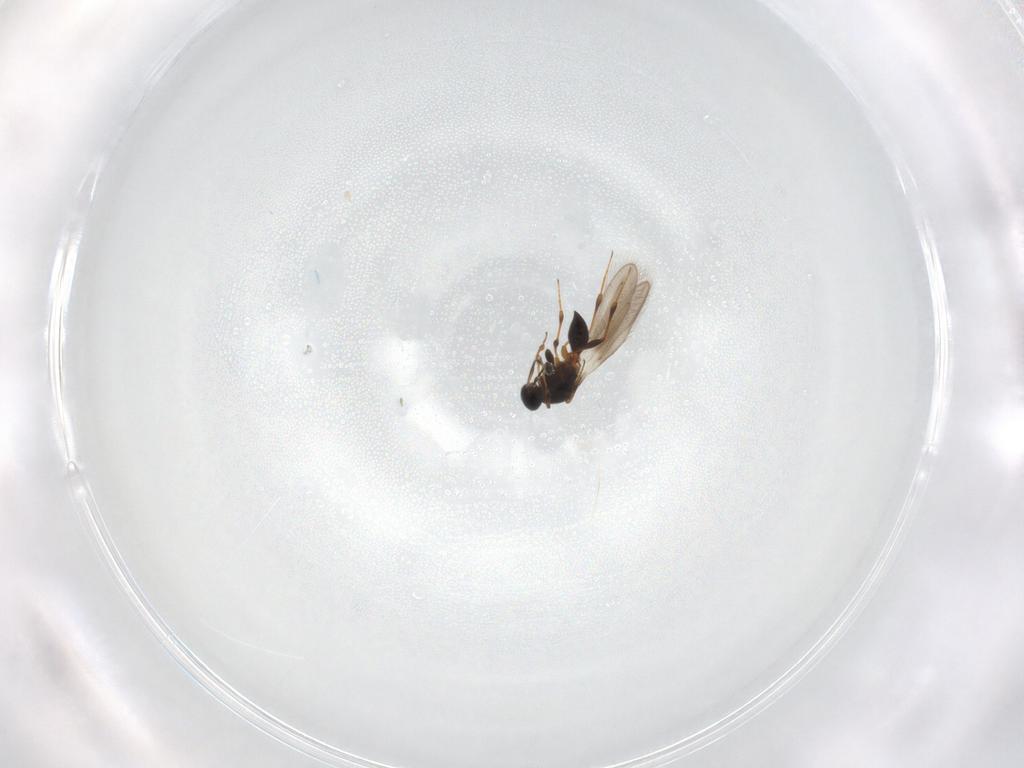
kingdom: Animalia
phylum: Arthropoda
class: Insecta
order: Hymenoptera
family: Platygastridae
